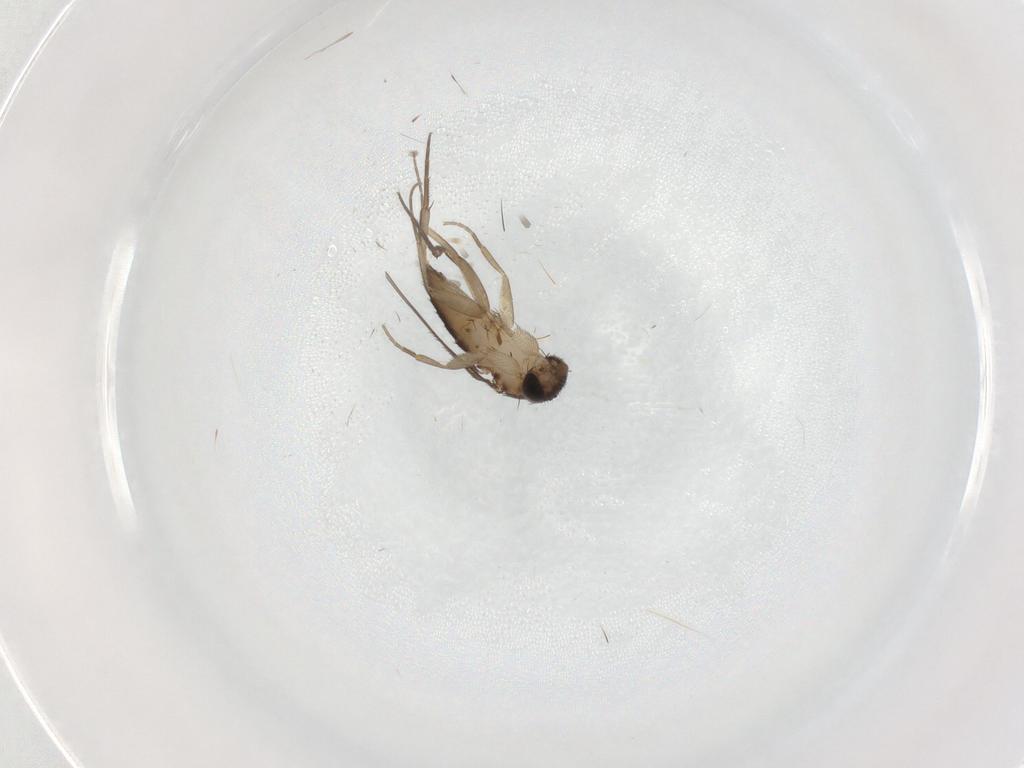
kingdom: Animalia
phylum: Arthropoda
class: Insecta
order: Diptera
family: Phoridae
